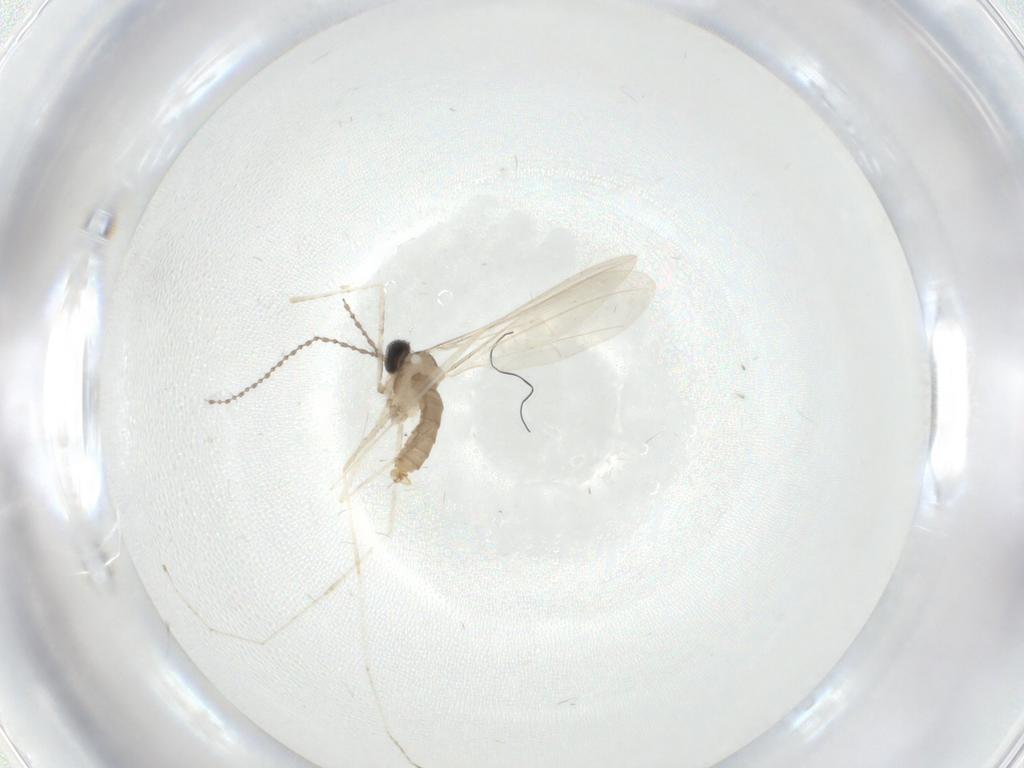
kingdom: Animalia
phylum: Arthropoda
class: Insecta
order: Diptera
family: Cecidomyiidae
